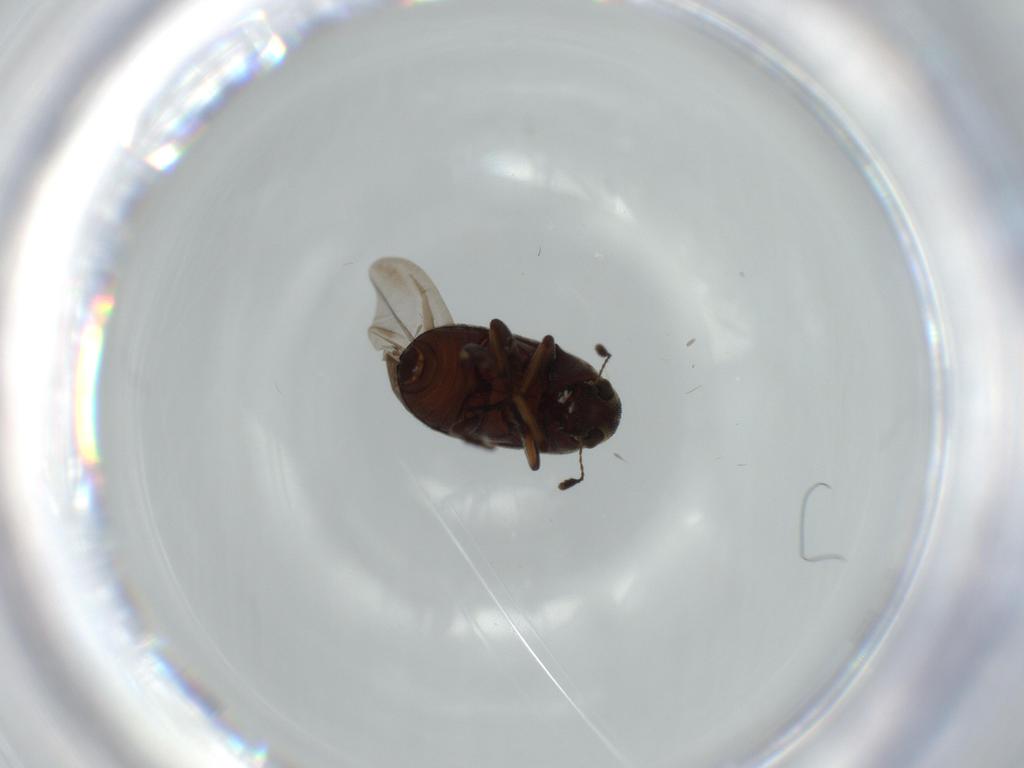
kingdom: Animalia
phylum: Arthropoda
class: Insecta
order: Coleoptera
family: Anthribidae
